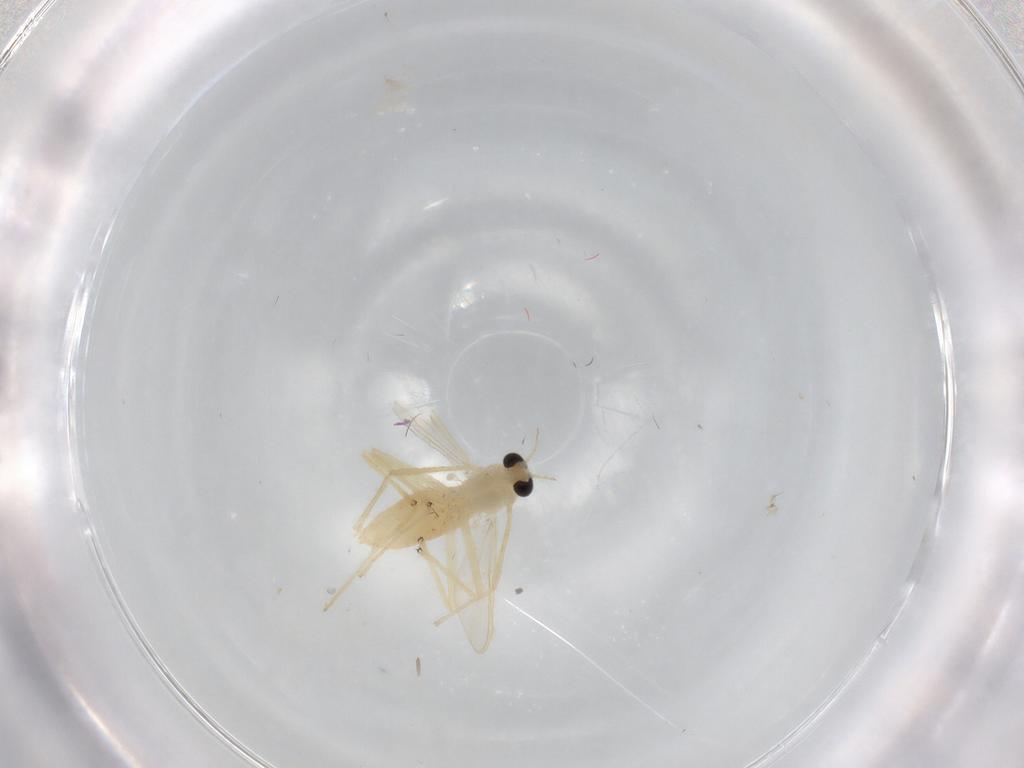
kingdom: Animalia
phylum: Arthropoda
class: Insecta
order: Diptera
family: Chironomidae
